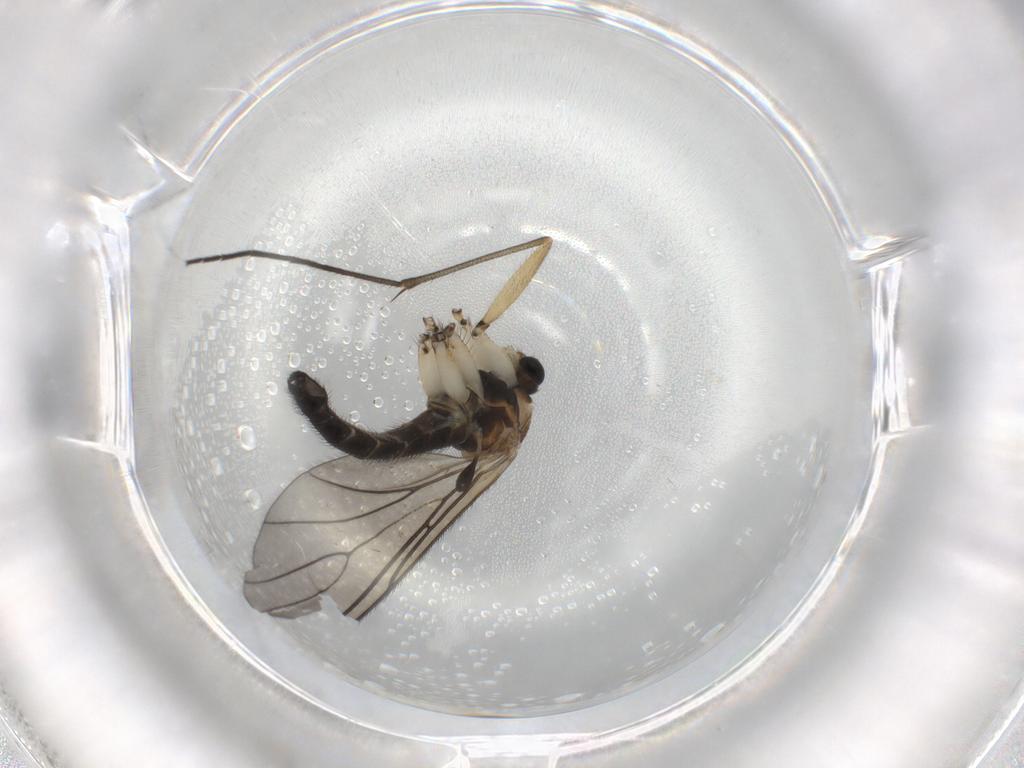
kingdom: Animalia
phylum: Arthropoda
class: Insecta
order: Diptera
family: Sciaridae
